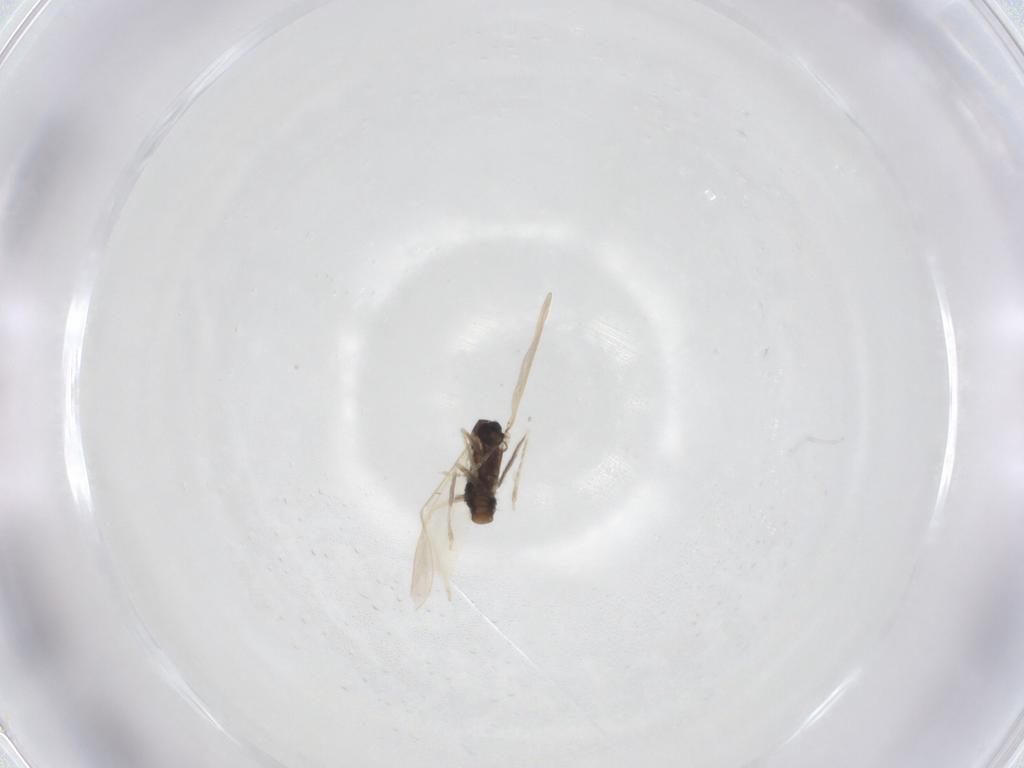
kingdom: Animalia
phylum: Arthropoda
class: Insecta
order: Diptera
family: Cecidomyiidae
